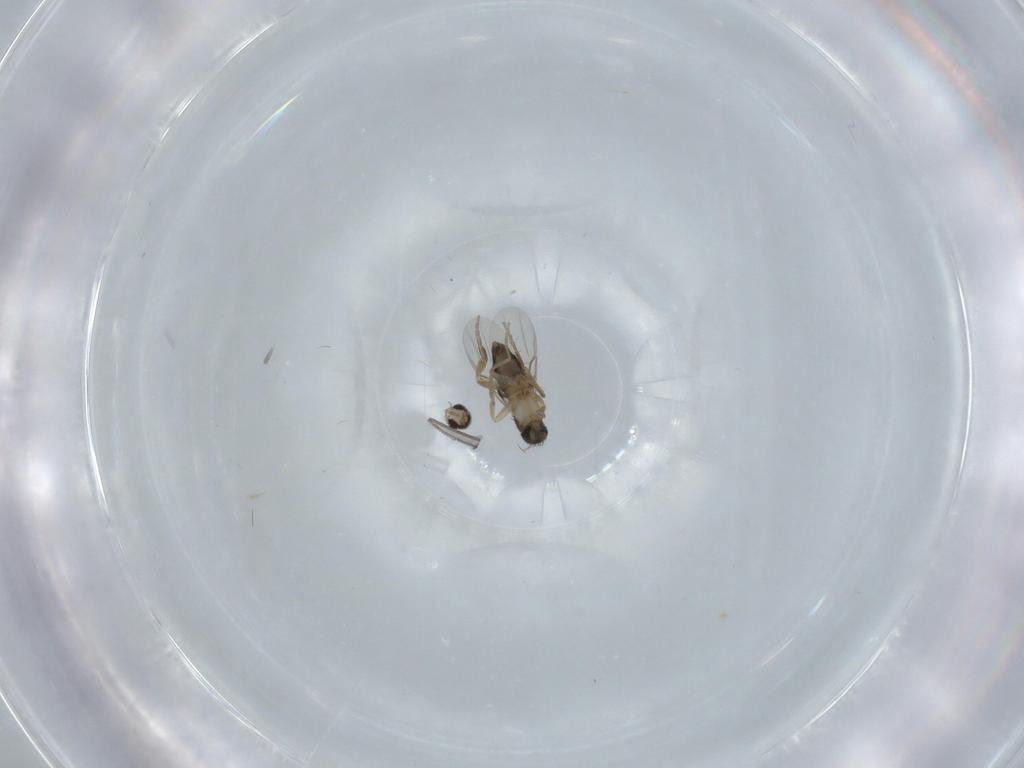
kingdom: Animalia
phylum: Arthropoda
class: Insecta
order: Diptera
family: Phoridae
